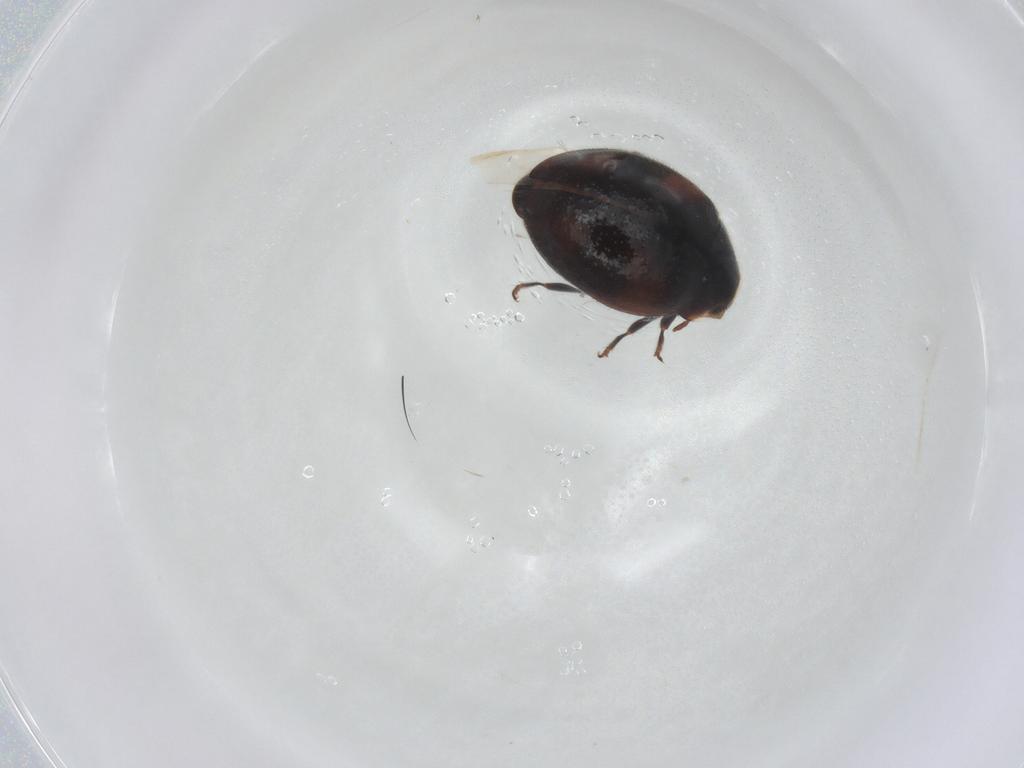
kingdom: Animalia
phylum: Arthropoda
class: Insecta
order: Coleoptera
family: Coccinellidae
